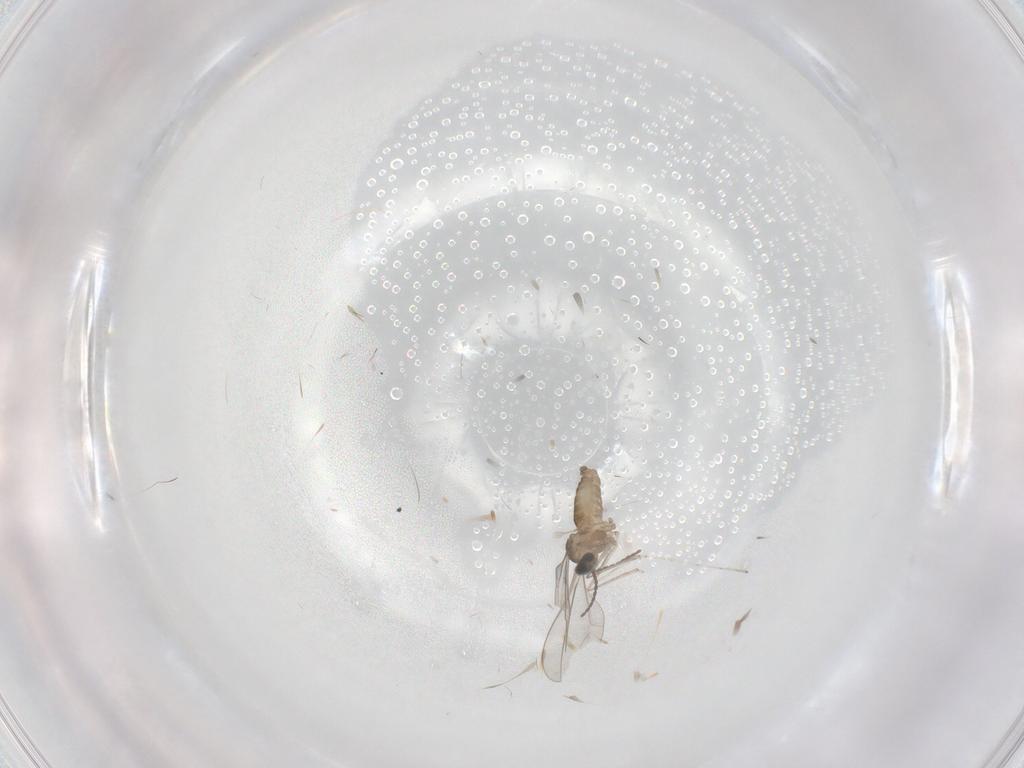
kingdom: Animalia
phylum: Arthropoda
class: Insecta
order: Diptera
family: Cecidomyiidae
